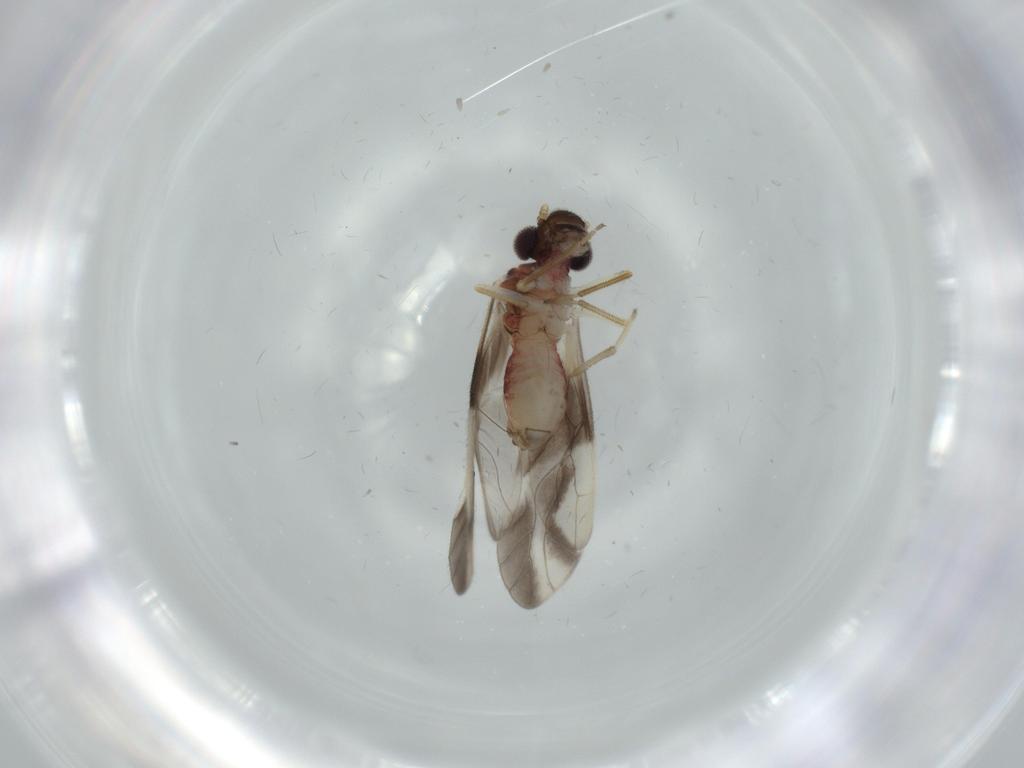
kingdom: Animalia
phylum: Arthropoda
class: Insecta
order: Psocodea
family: Caeciliusidae
